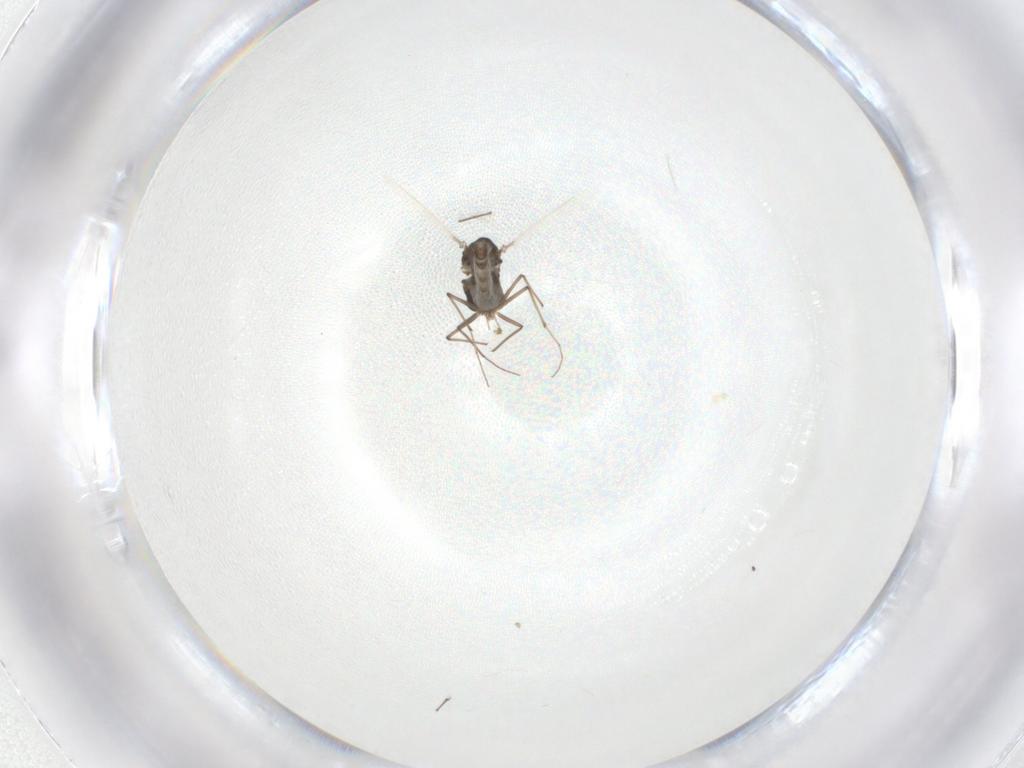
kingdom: Animalia
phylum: Arthropoda
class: Insecta
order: Diptera
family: Chironomidae
